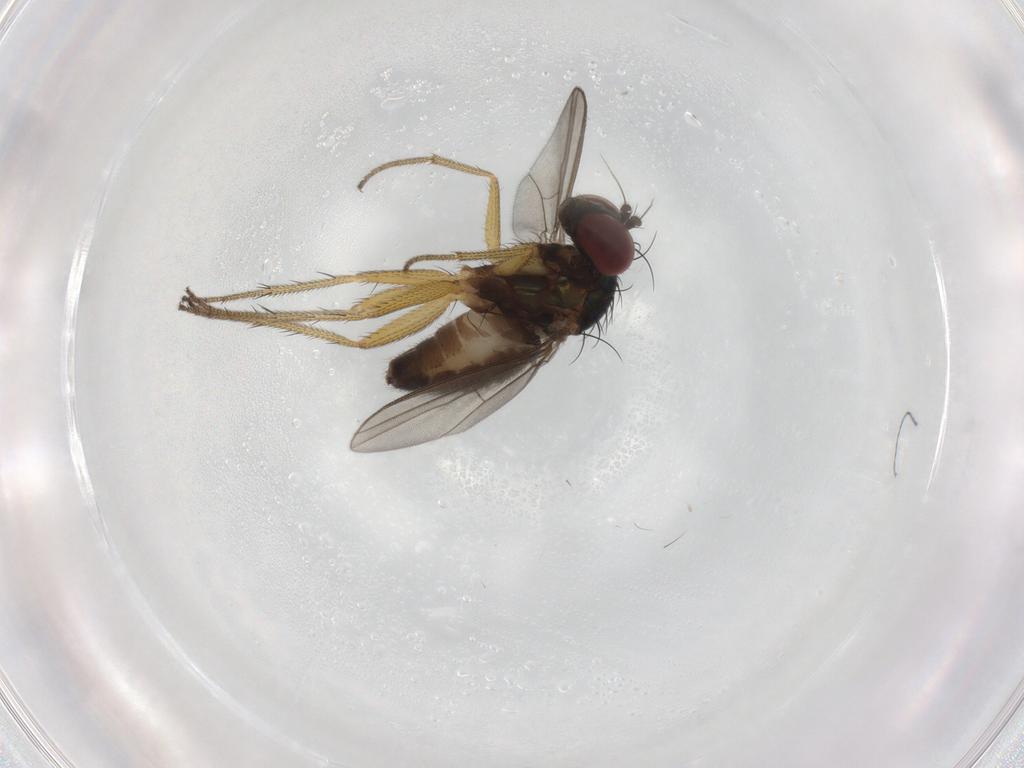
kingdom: Animalia
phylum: Arthropoda
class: Insecta
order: Diptera
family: Dolichopodidae
